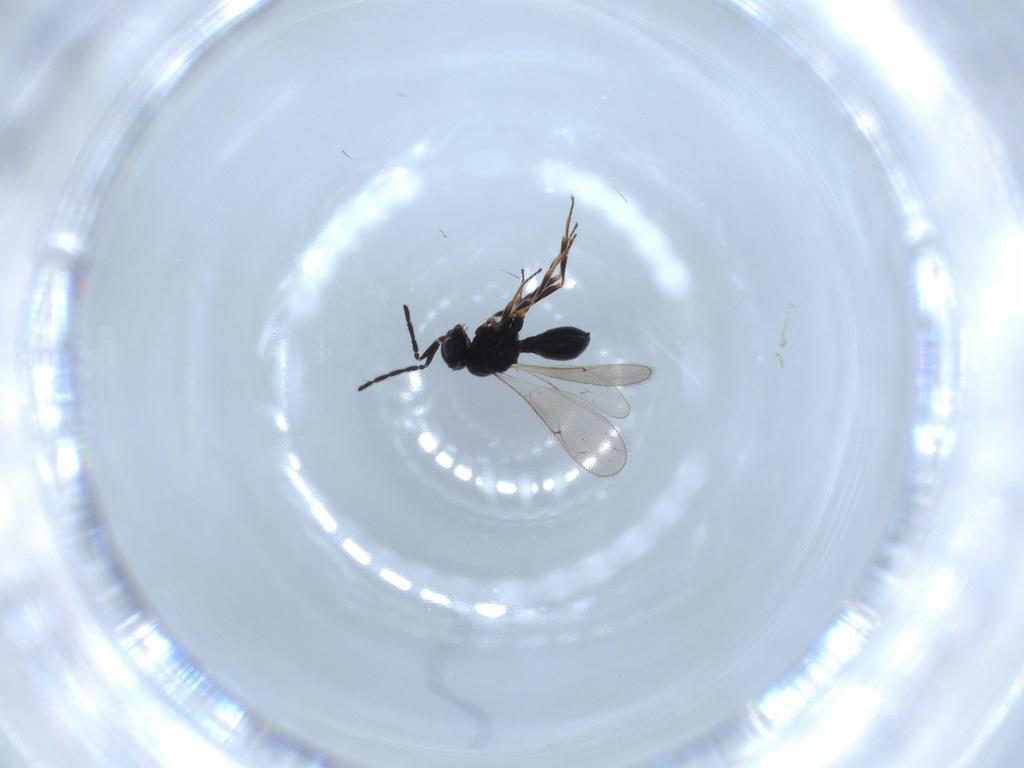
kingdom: Animalia
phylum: Arthropoda
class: Insecta
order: Hymenoptera
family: Scelionidae
